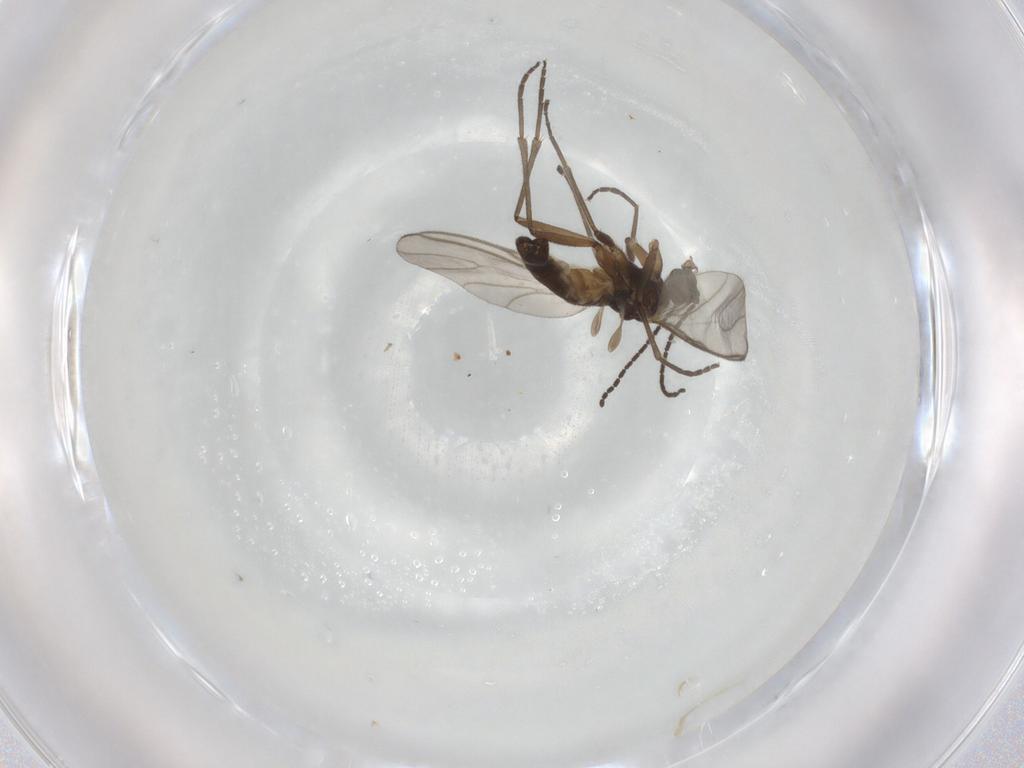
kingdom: Animalia
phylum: Arthropoda
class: Insecta
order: Diptera
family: Sciaridae
